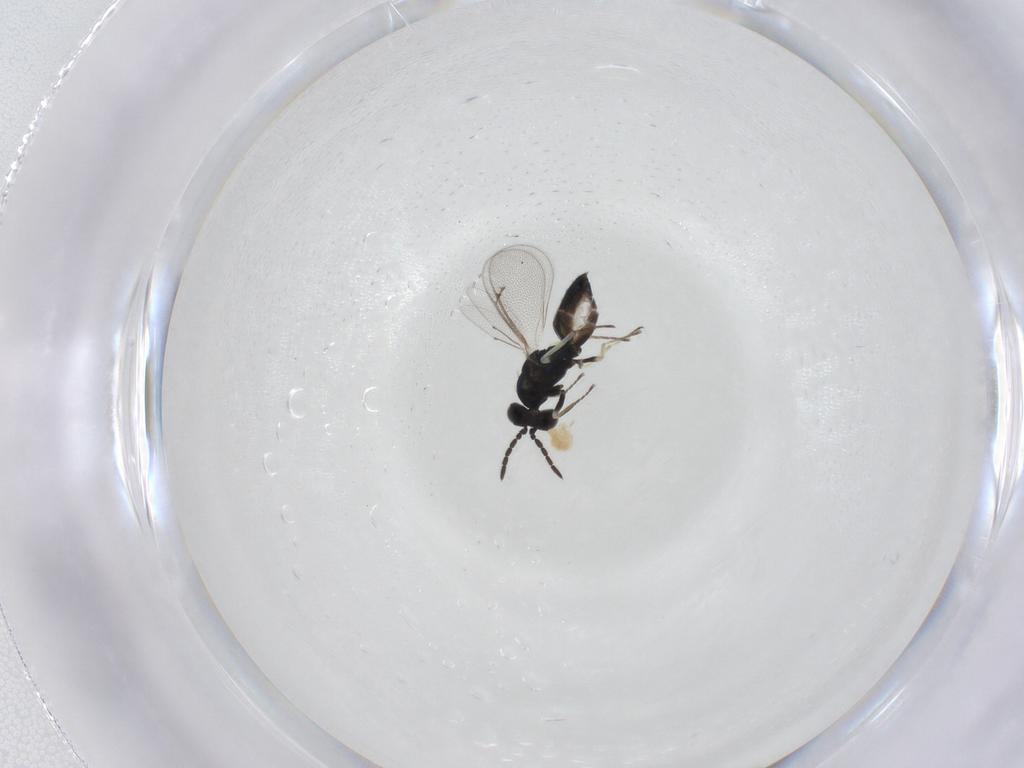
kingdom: Animalia
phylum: Arthropoda
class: Insecta
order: Hymenoptera
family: Eulophidae
